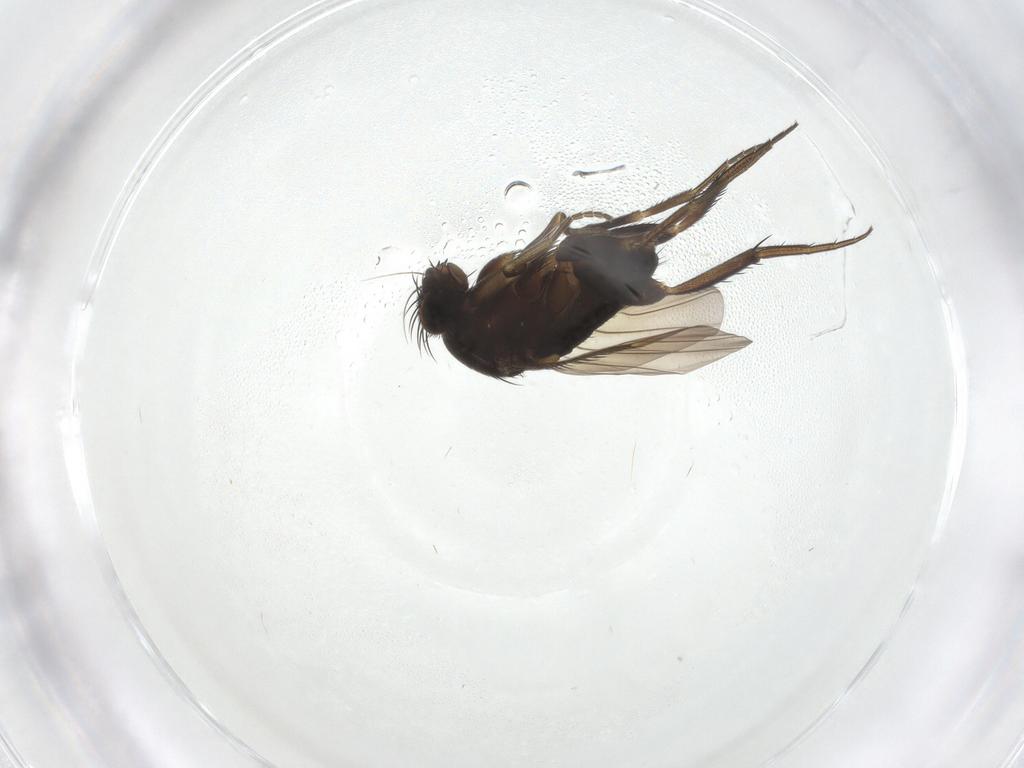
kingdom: Animalia
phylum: Arthropoda
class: Insecta
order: Diptera
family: Phoridae
